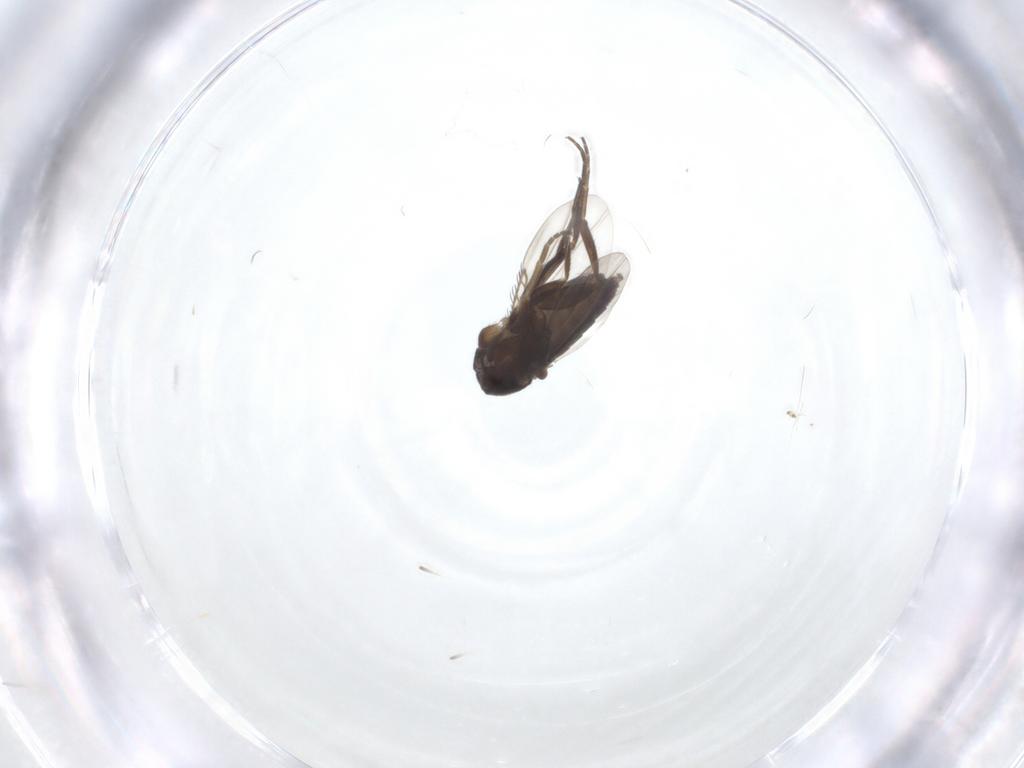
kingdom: Animalia
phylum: Arthropoda
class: Insecta
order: Diptera
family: Phoridae
